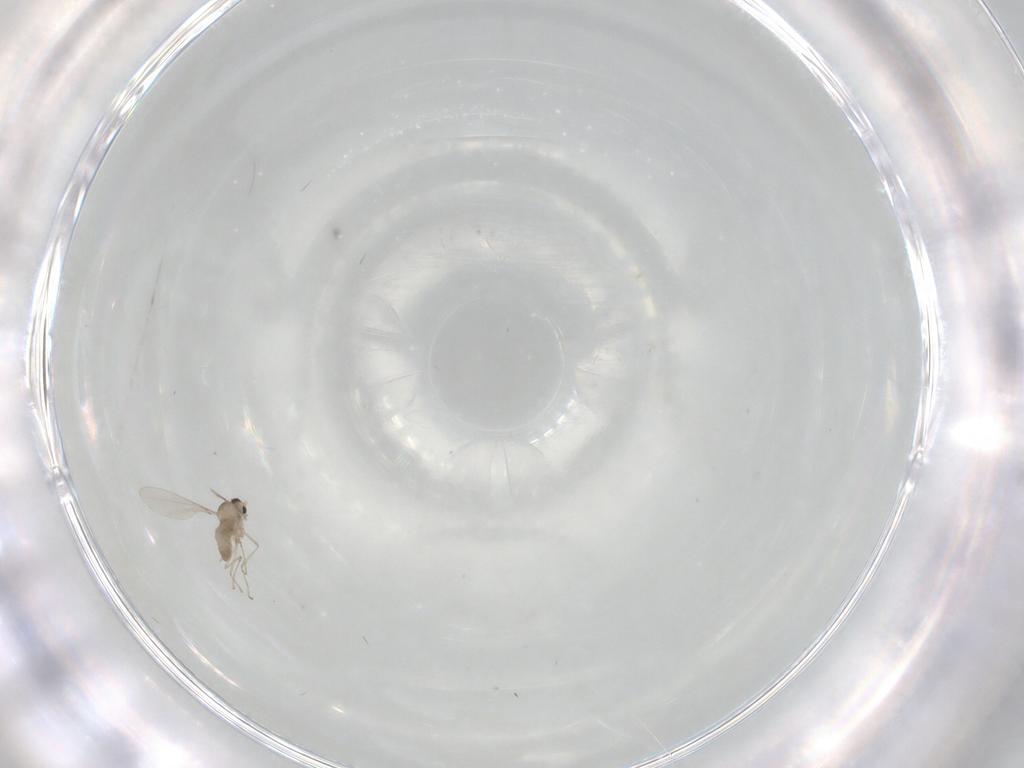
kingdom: Animalia
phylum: Arthropoda
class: Insecta
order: Diptera
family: Cecidomyiidae
